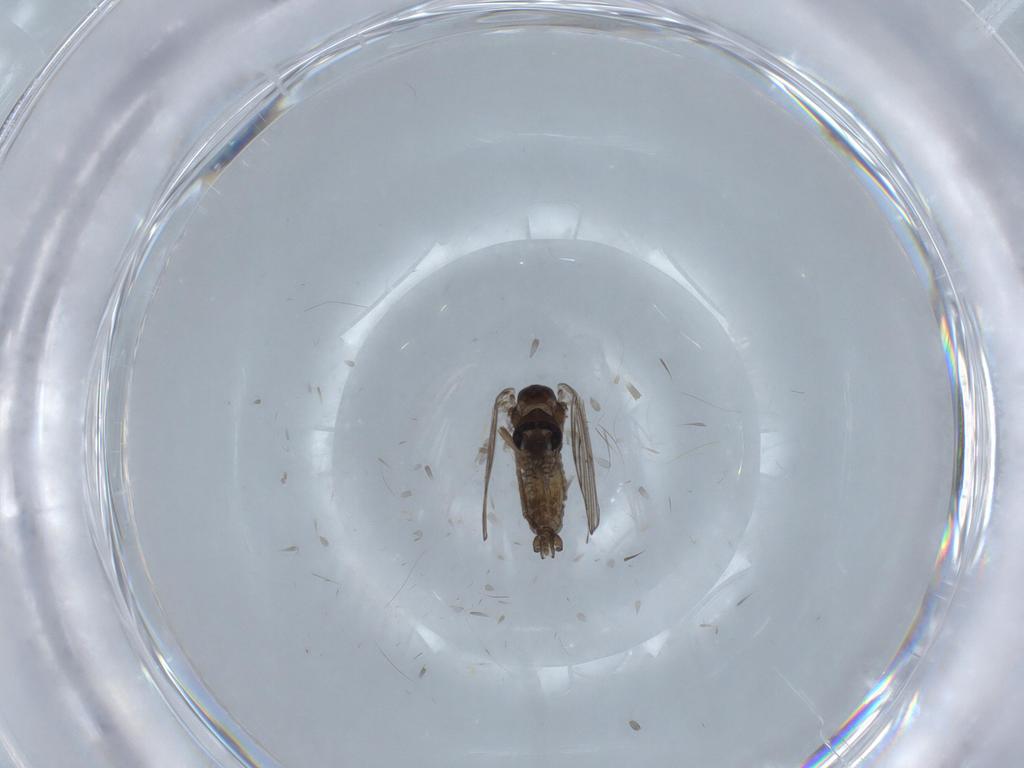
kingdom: Animalia
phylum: Arthropoda
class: Insecta
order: Diptera
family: Psychodidae
